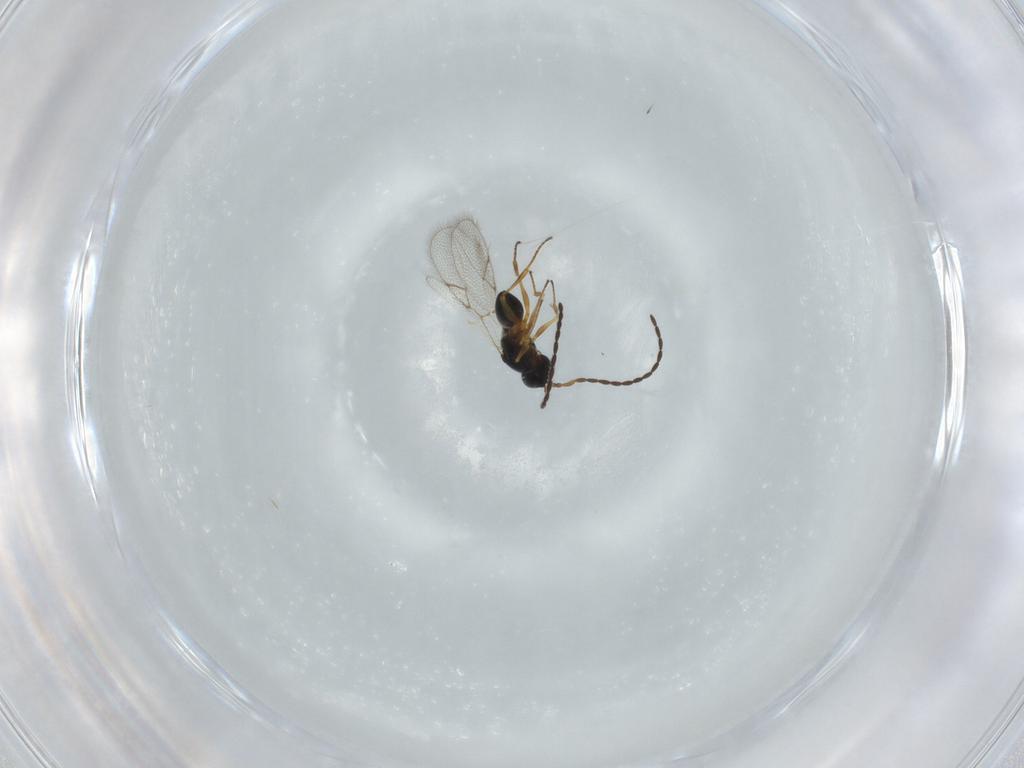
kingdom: Animalia
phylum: Arthropoda
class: Insecta
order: Hymenoptera
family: Figitidae
